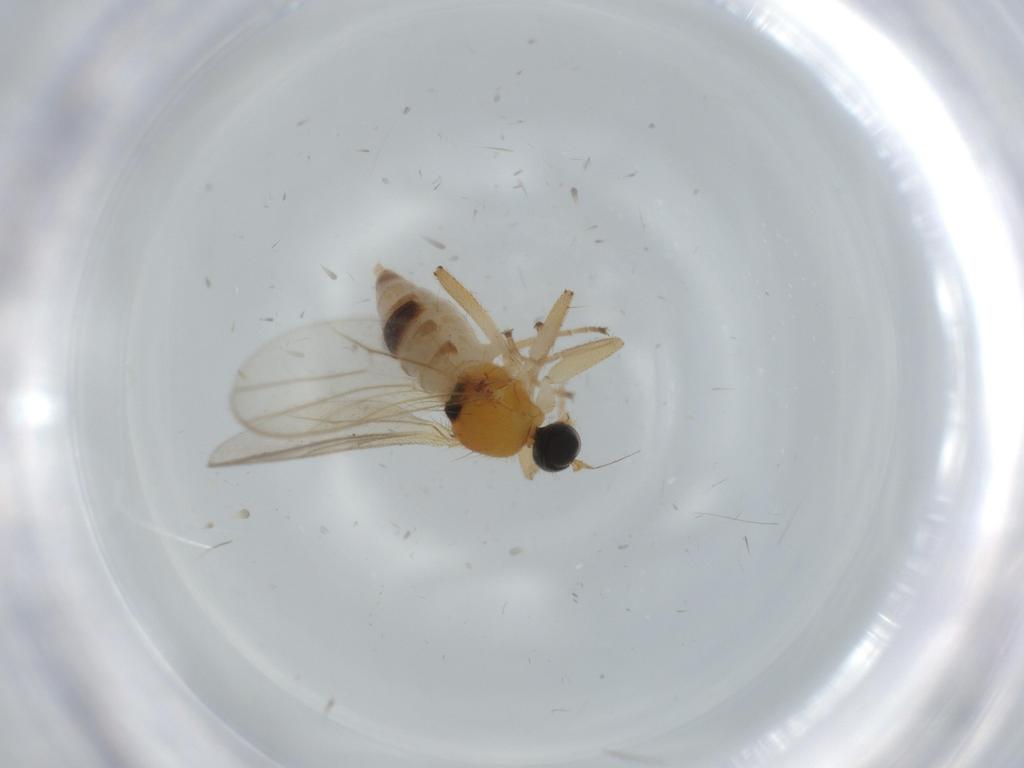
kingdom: Animalia
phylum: Arthropoda
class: Insecta
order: Diptera
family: Hybotidae
